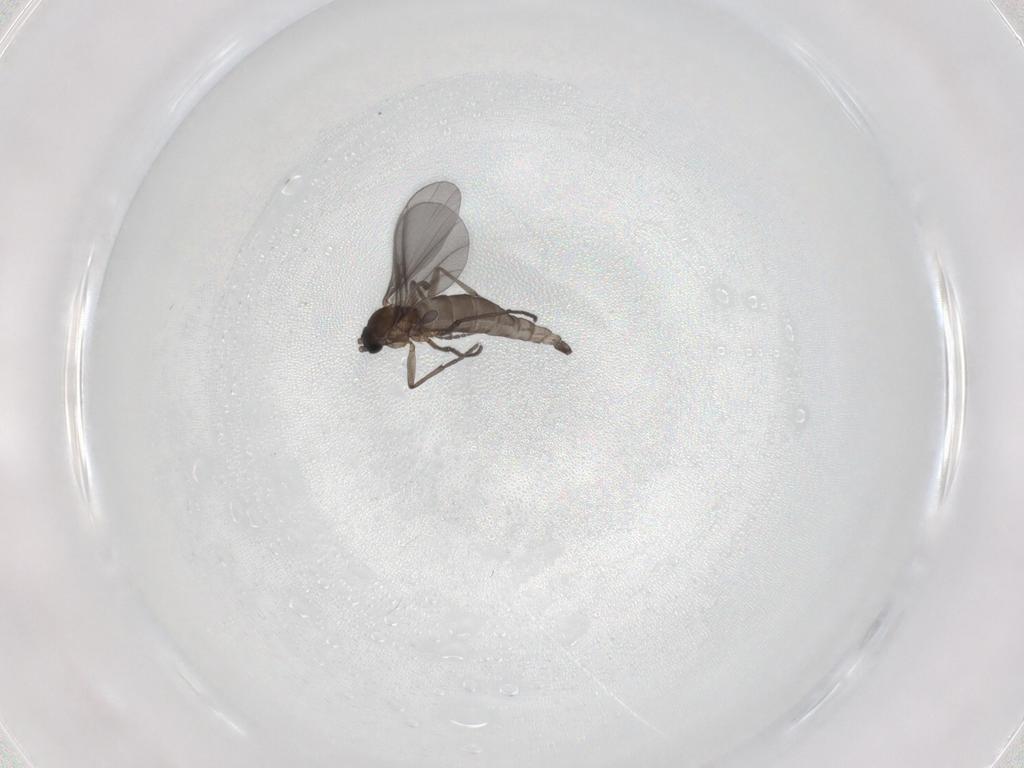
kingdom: Animalia
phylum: Arthropoda
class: Insecta
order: Diptera
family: Sciaridae
